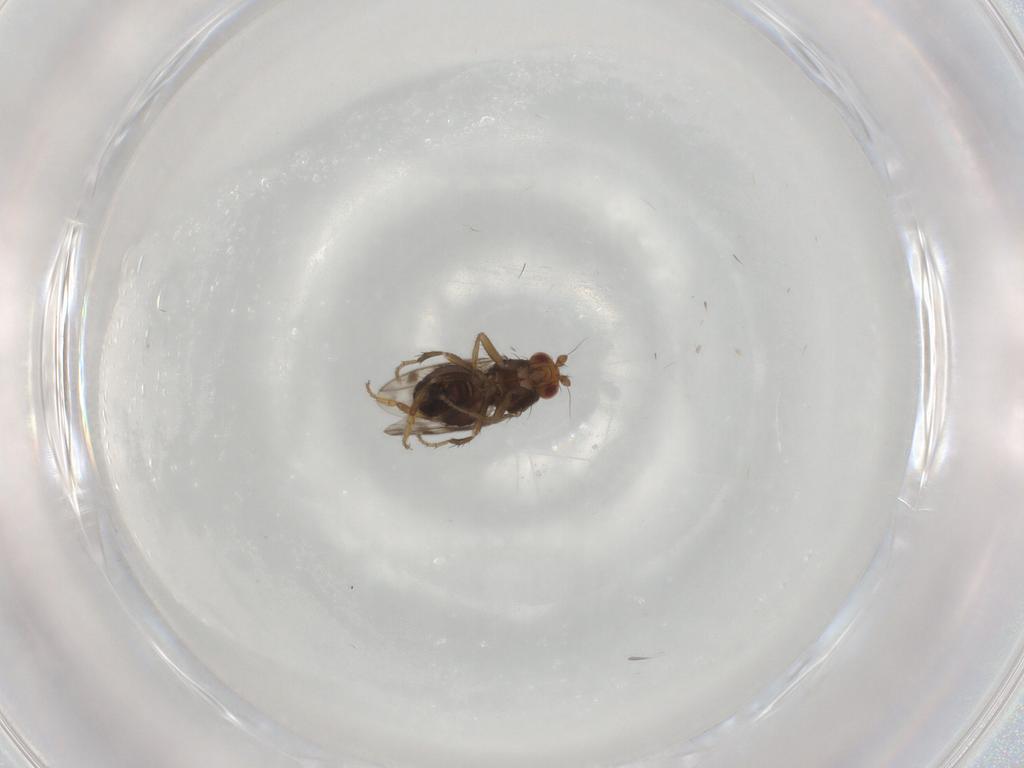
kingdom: Animalia
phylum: Arthropoda
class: Insecta
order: Diptera
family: Sphaeroceridae
